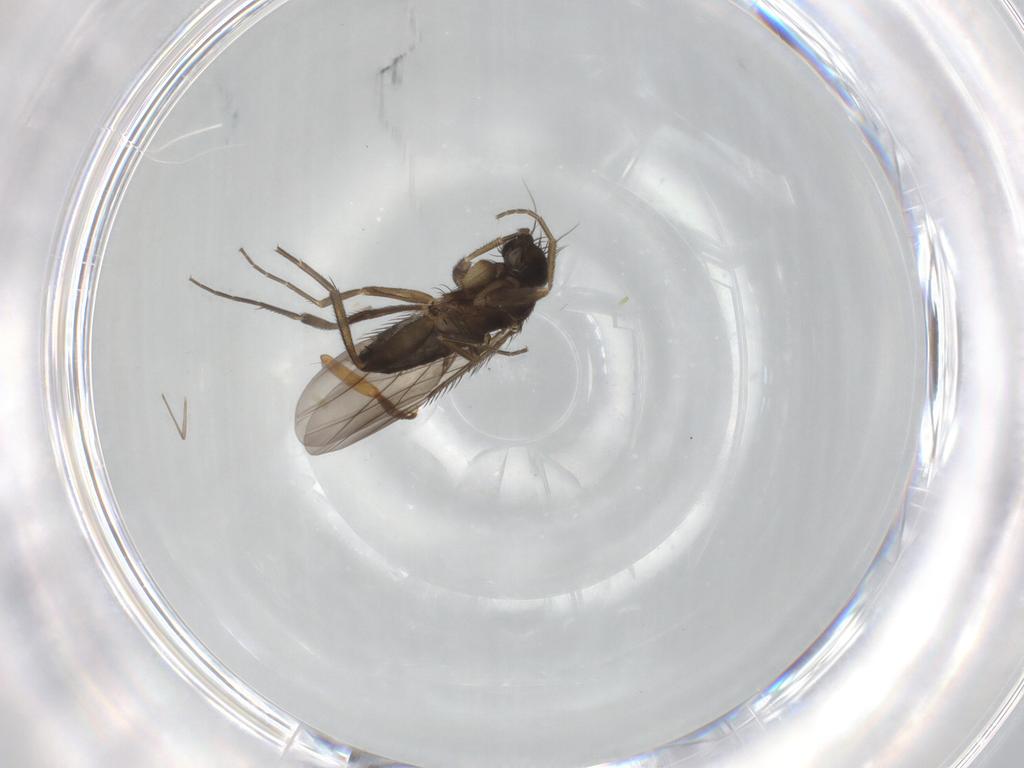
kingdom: Animalia
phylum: Arthropoda
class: Insecta
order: Diptera
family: Phoridae
